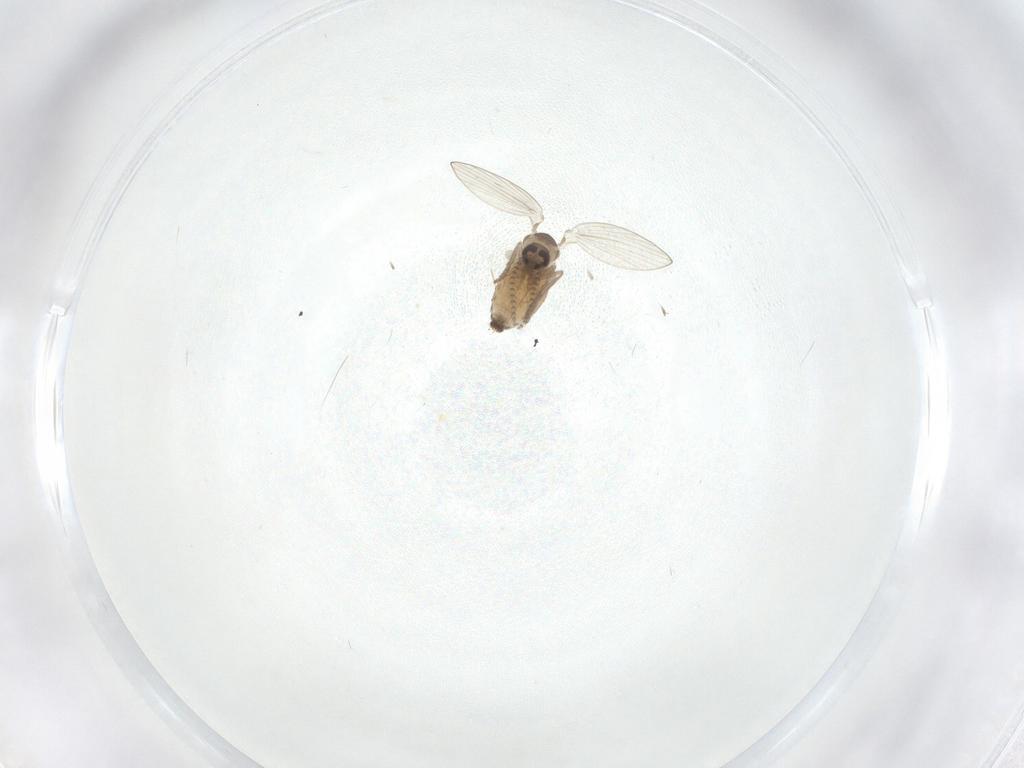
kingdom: Animalia
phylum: Arthropoda
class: Insecta
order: Diptera
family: Psychodidae
